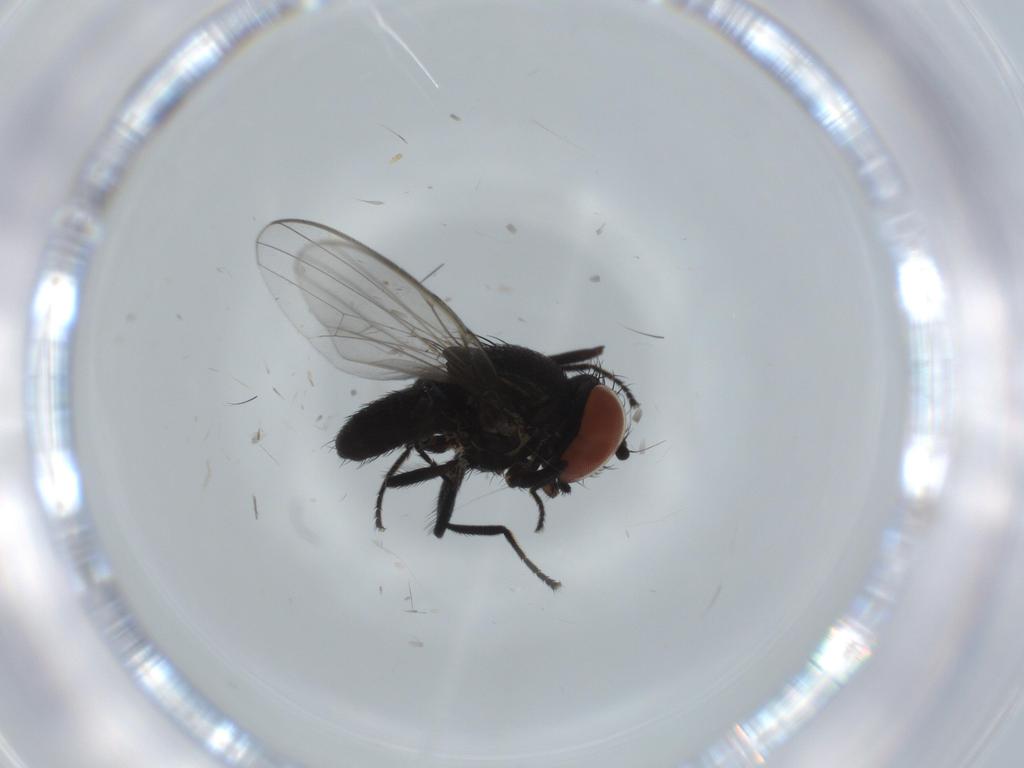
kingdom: Animalia
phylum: Arthropoda
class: Insecta
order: Diptera
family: Milichiidae
